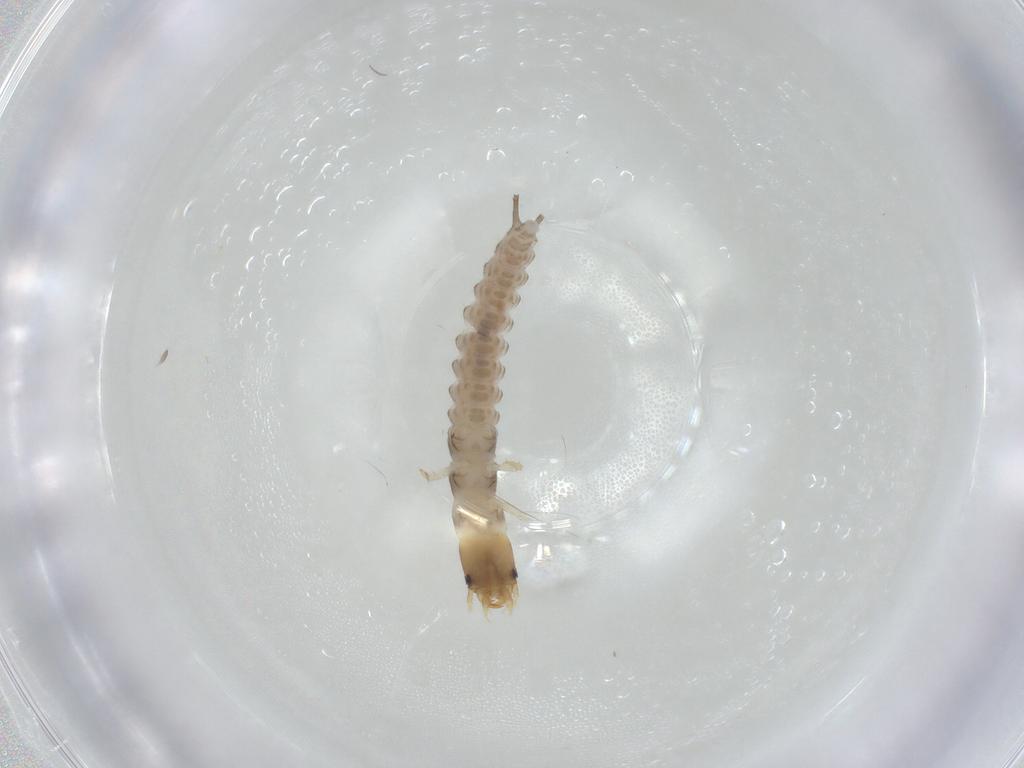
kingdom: Animalia
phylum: Arthropoda
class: Insecta
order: Coleoptera
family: Carabidae
